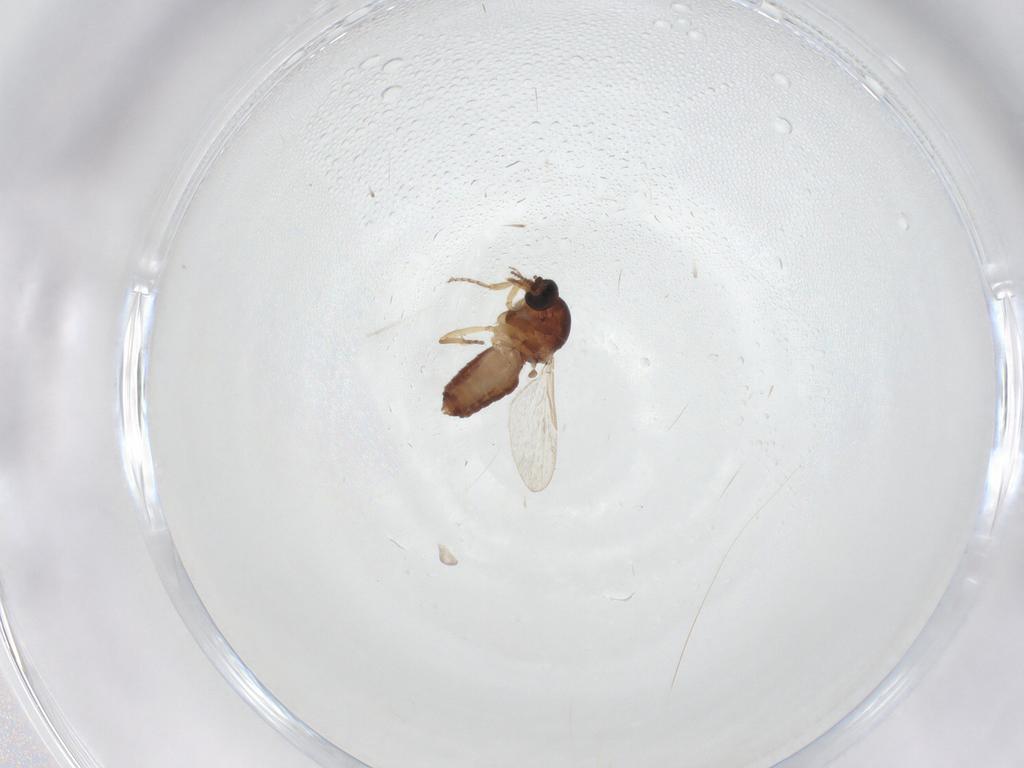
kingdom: Animalia
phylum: Arthropoda
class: Insecta
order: Diptera
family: Ceratopogonidae
